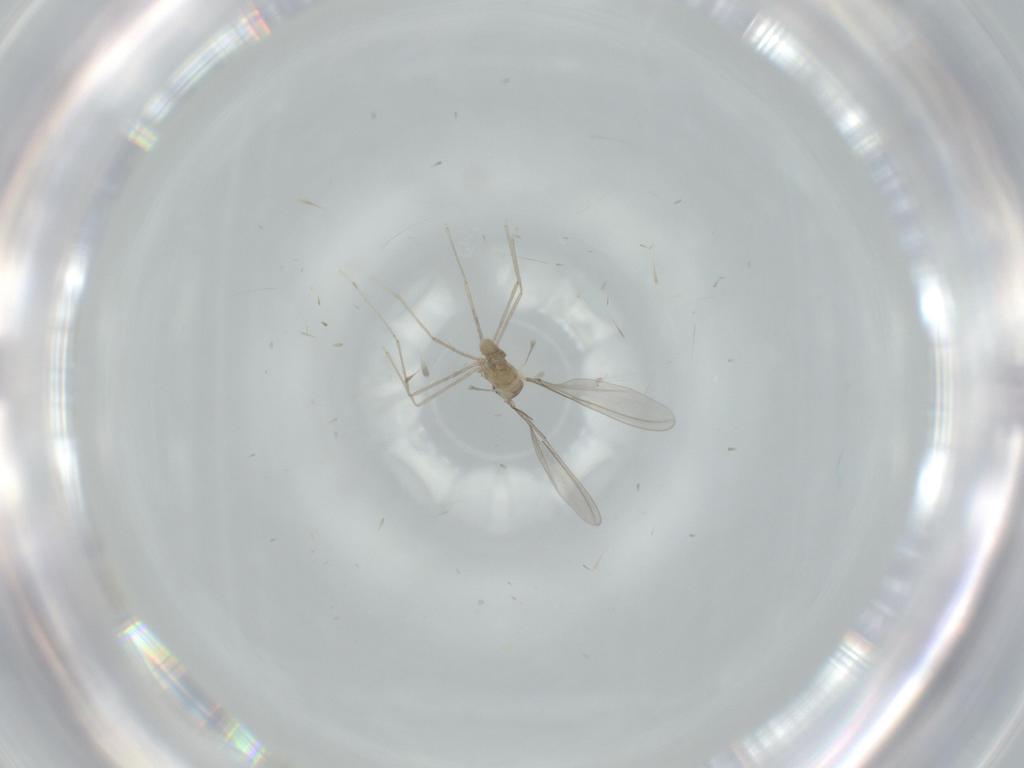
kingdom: Animalia
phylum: Arthropoda
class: Insecta
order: Diptera
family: Cecidomyiidae
